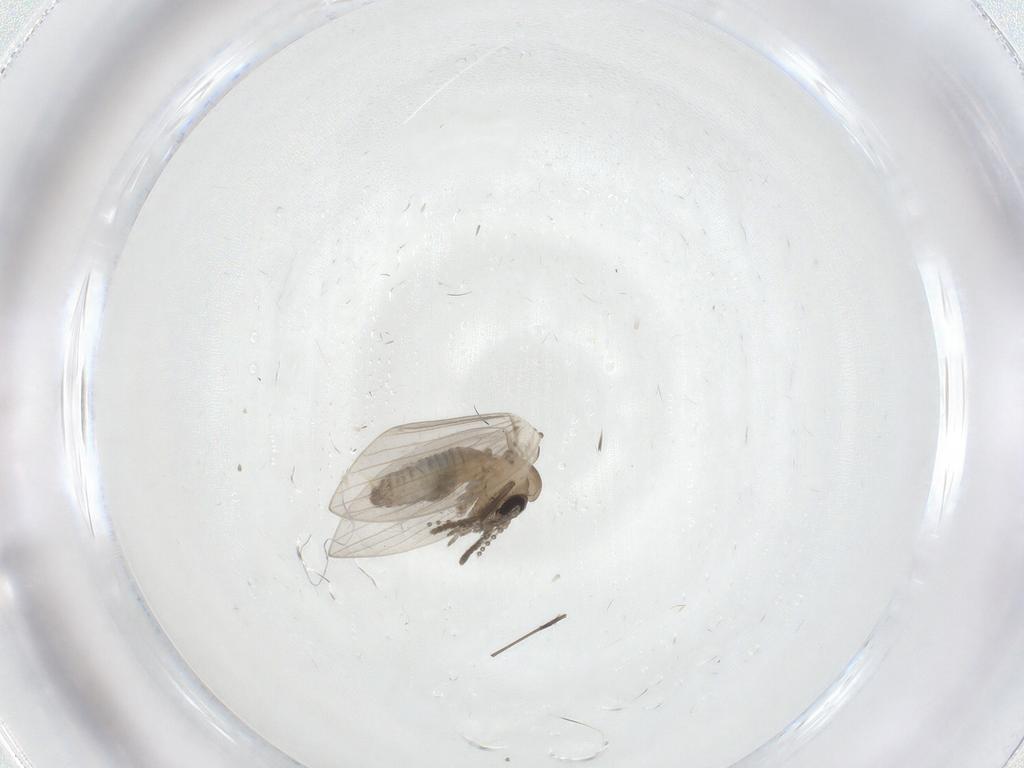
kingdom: Animalia
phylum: Arthropoda
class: Insecta
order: Diptera
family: Psychodidae
